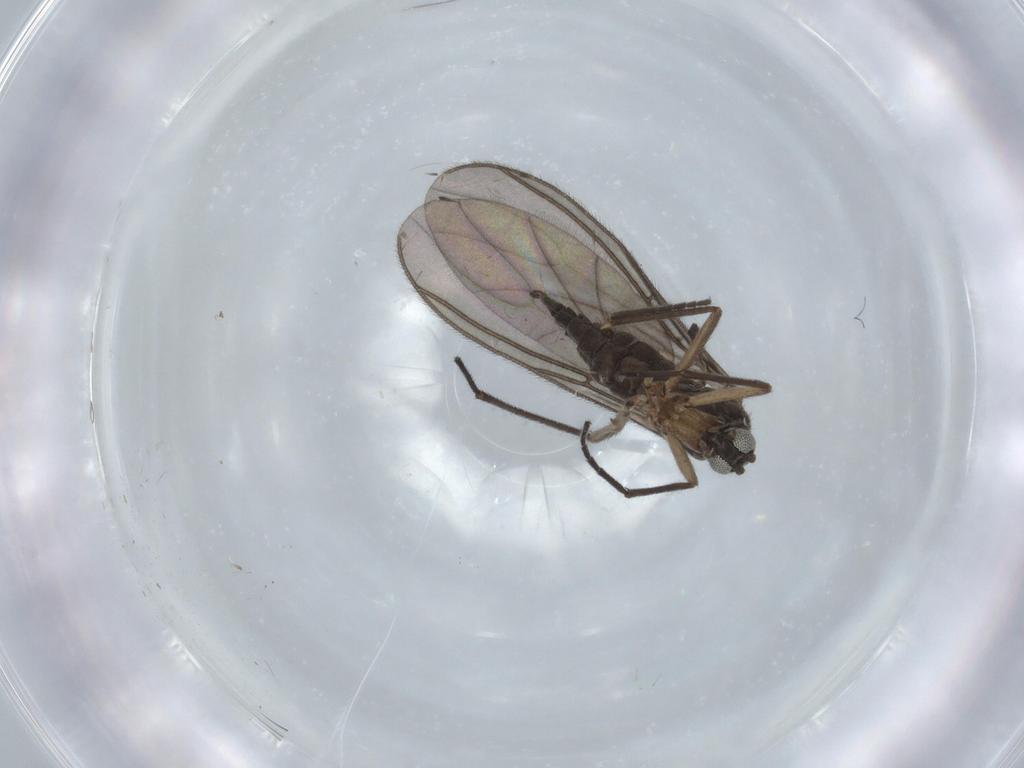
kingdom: Animalia
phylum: Arthropoda
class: Insecta
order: Diptera
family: Sciaridae
